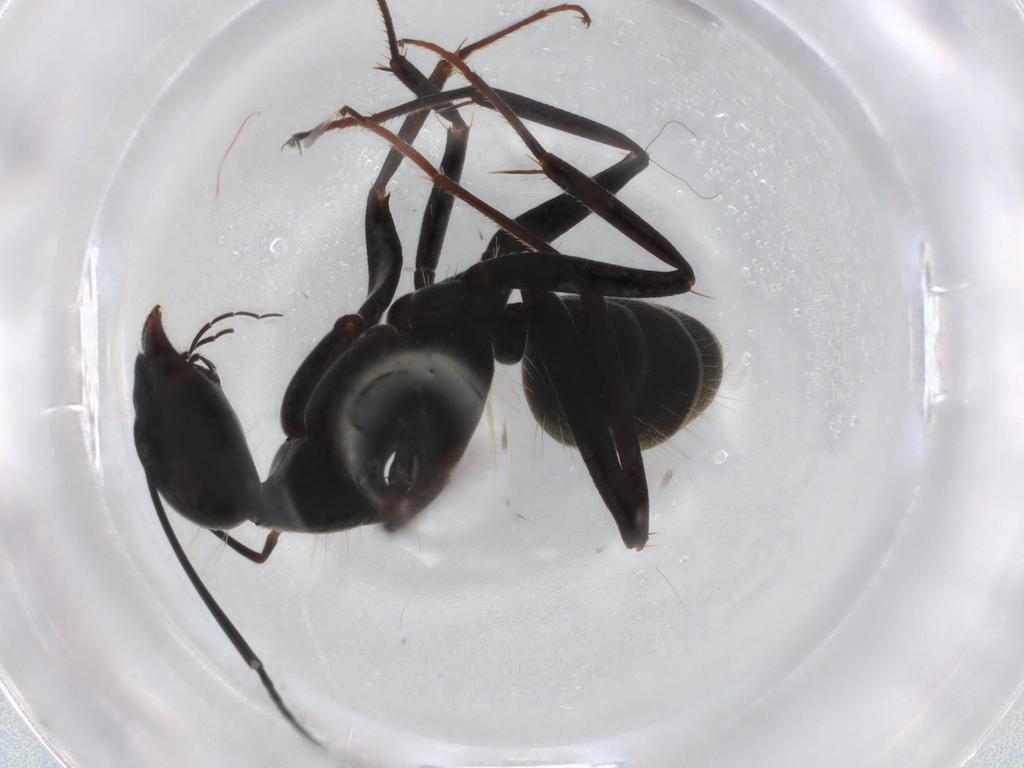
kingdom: Animalia
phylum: Arthropoda
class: Insecta
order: Hymenoptera
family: Formicidae
